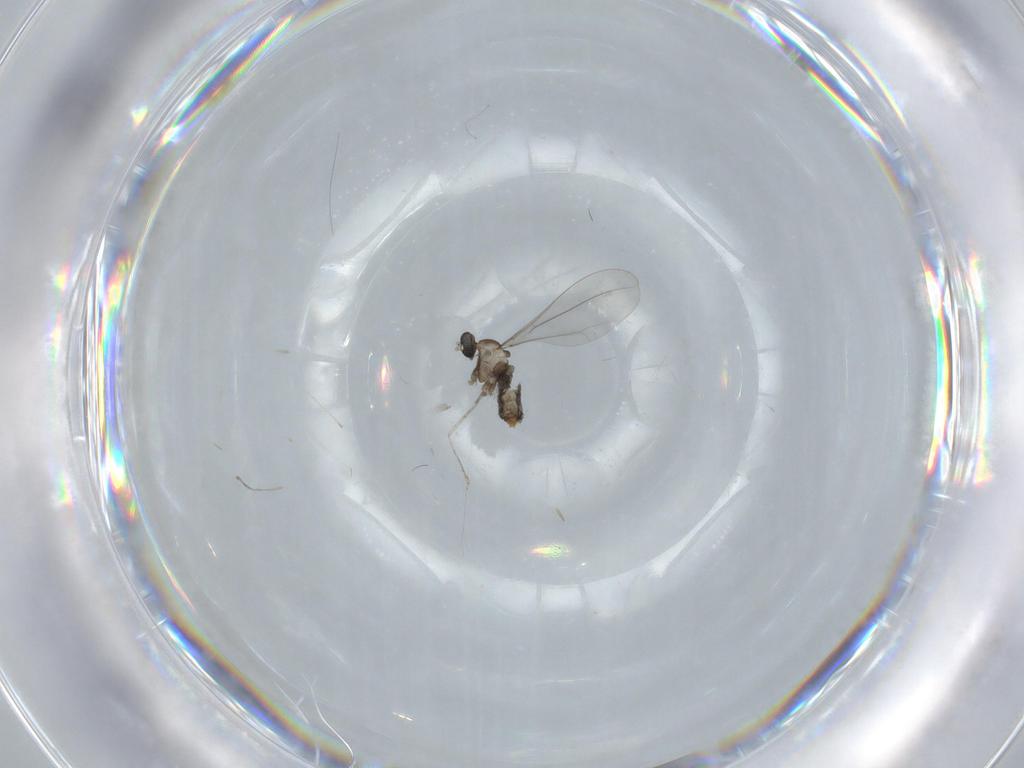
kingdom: Animalia
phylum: Arthropoda
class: Insecta
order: Diptera
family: Cecidomyiidae
